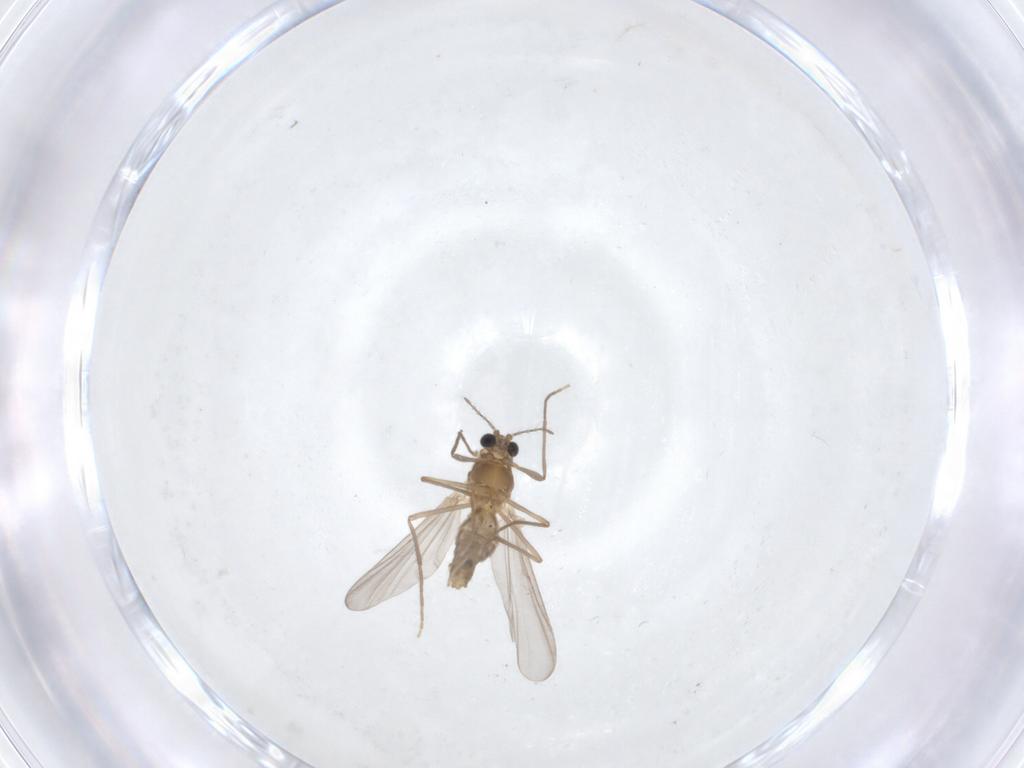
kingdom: Animalia
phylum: Arthropoda
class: Insecta
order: Diptera
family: Chironomidae
